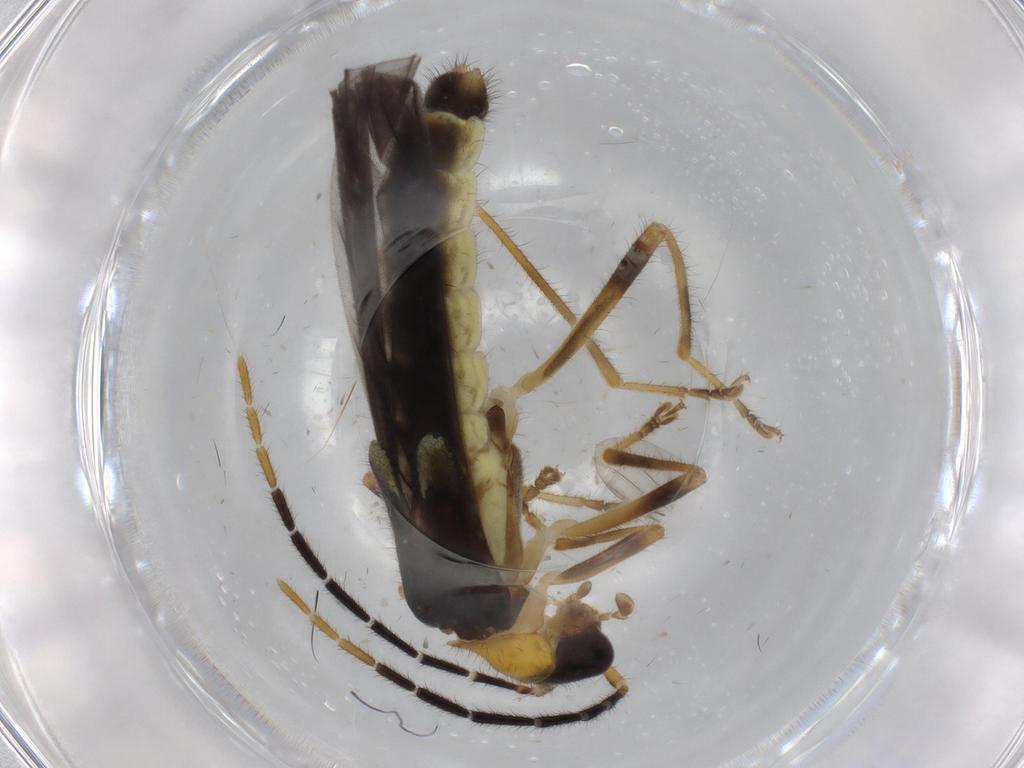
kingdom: Animalia
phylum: Arthropoda
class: Insecta
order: Coleoptera
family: Cantharidae
